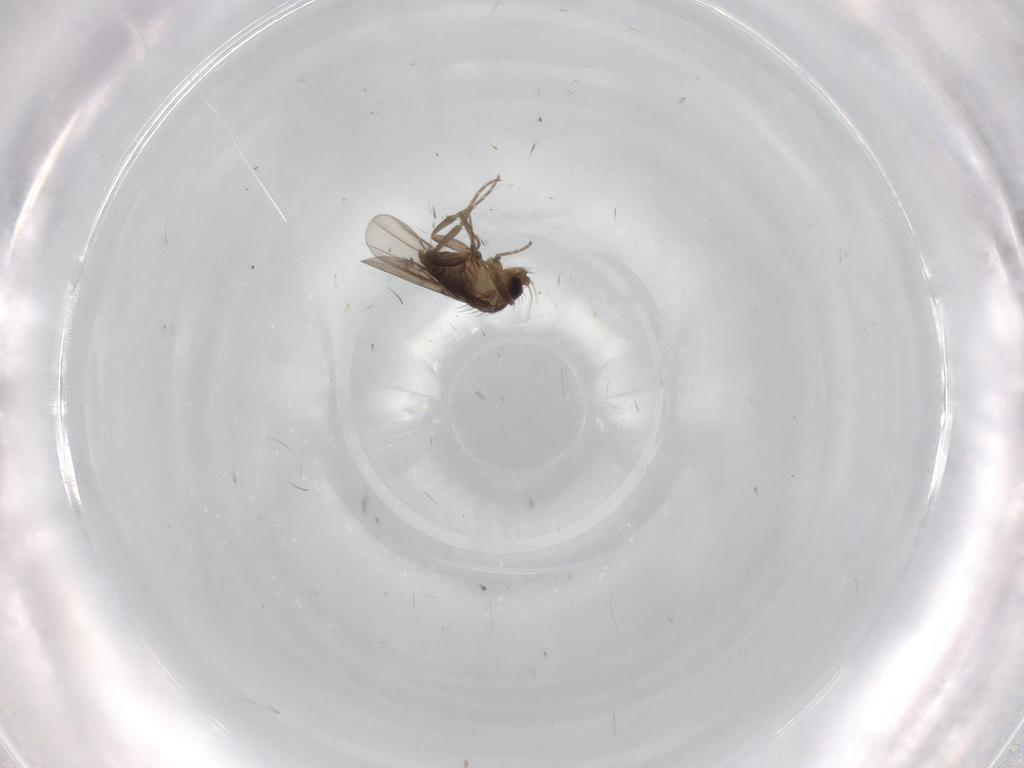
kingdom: Animalia
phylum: Arthropoda
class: Insecta
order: Diptera
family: Phoridae
